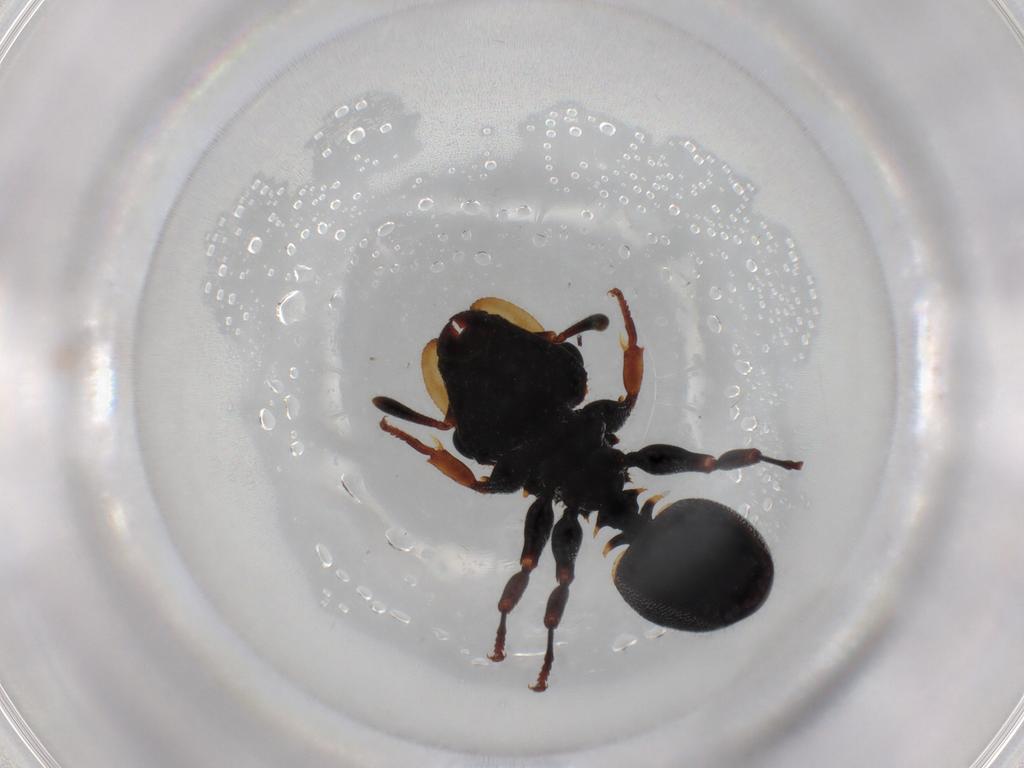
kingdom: Animalia
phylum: Arthropoda
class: Insecta
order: Hymenoptera
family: Formicidae
